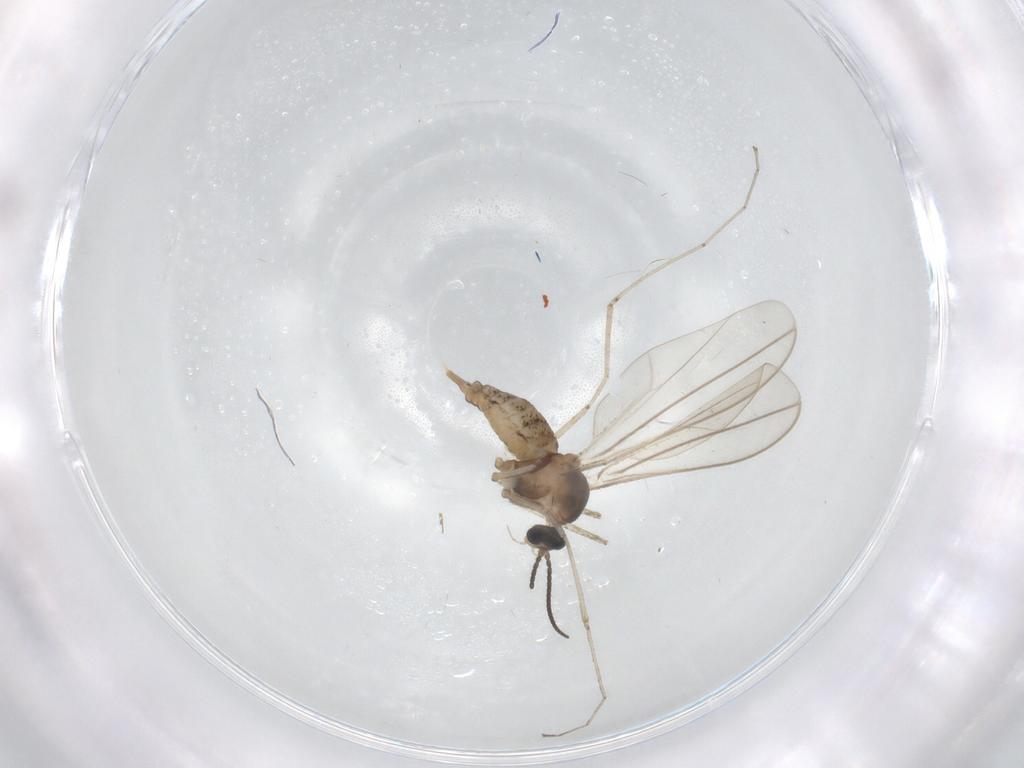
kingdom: Animalia
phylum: Arthropoda
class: Insecta
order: Diptera
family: Cecidomyiidae
